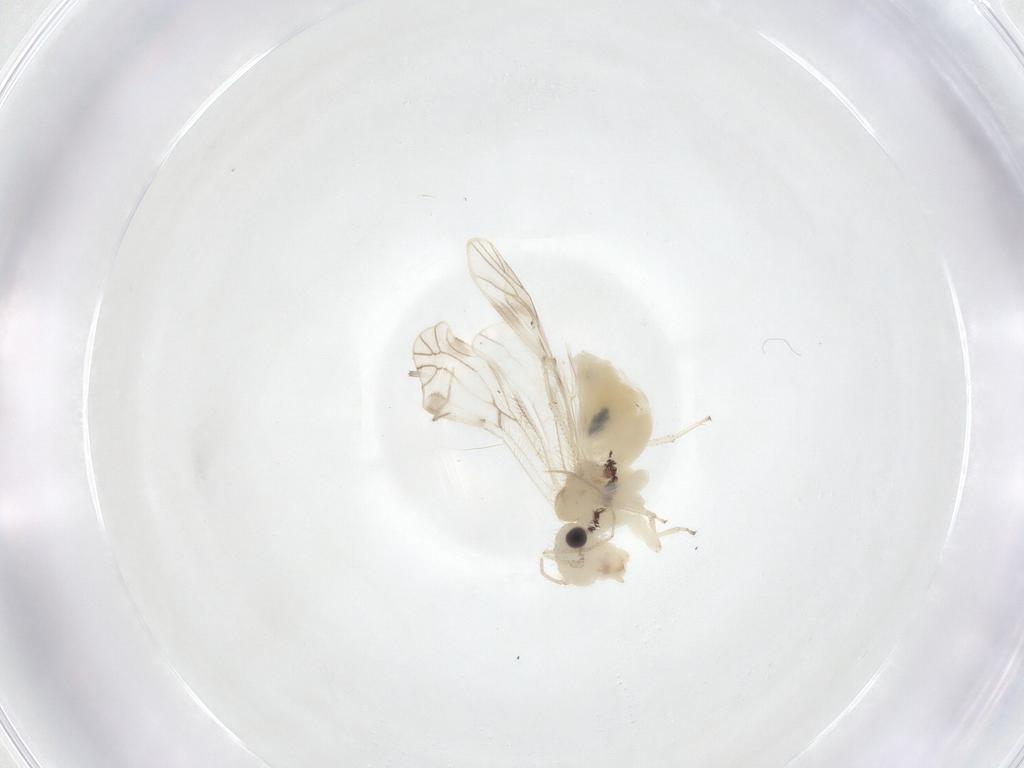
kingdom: Animalia
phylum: Arthropoda
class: Insecta
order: Psocodea
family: Caeciliusidae
